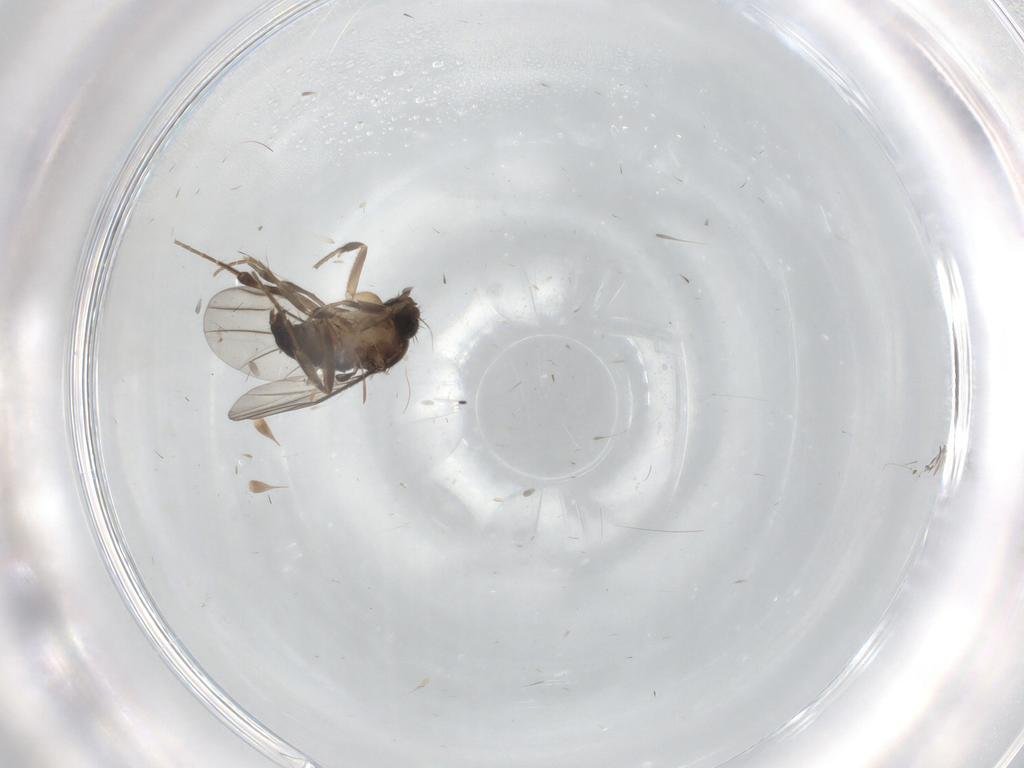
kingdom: Animalia
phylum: Arthropoda
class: Insecta
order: Diptera
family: Phoridae
